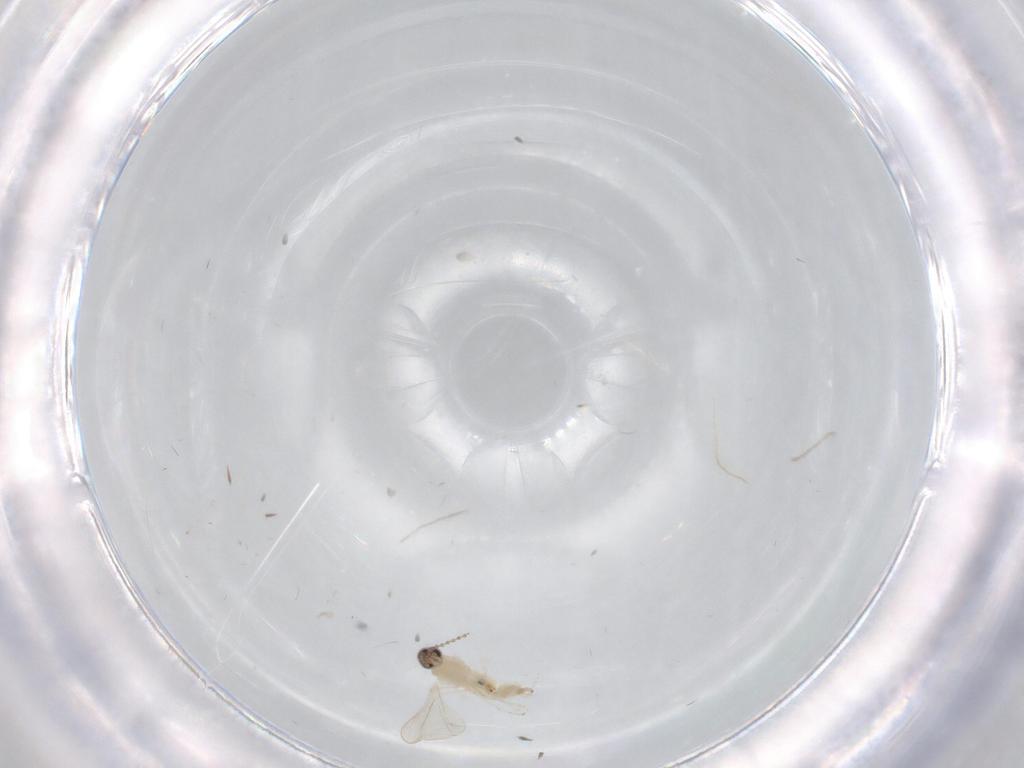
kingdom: Animalia
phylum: Arthropoda
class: Insecta
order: Diptera
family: Cecidomyiidae
